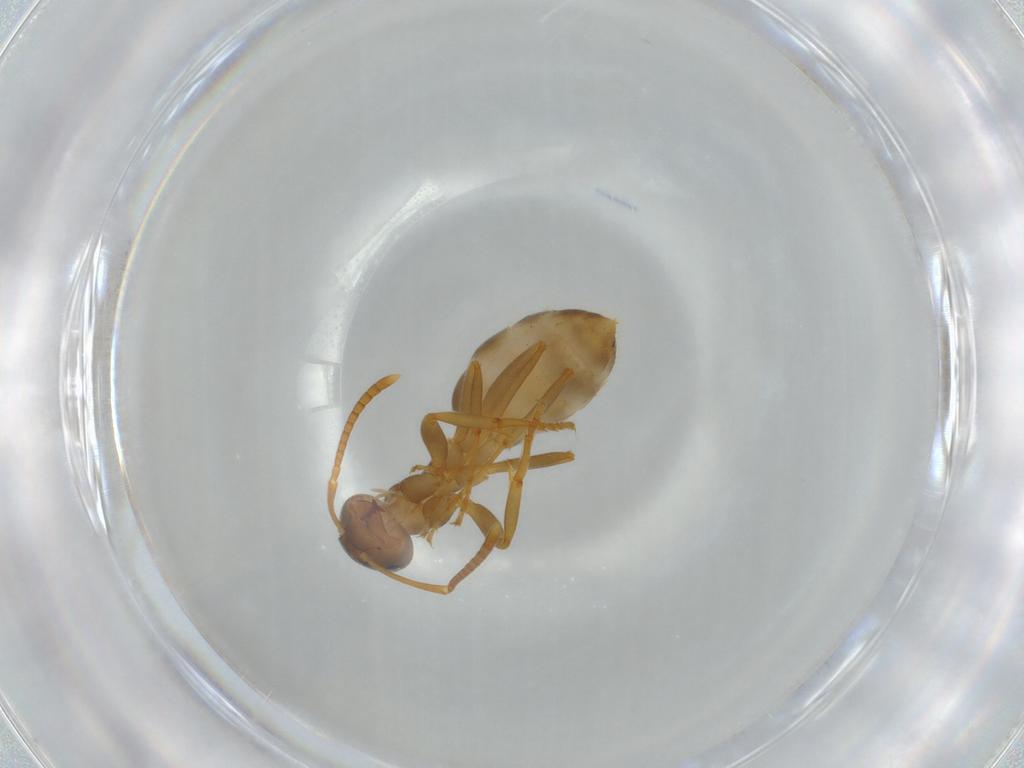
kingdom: Animalia
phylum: Arthropoda
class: Insecta
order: Hymenoptera
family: Formicidae
